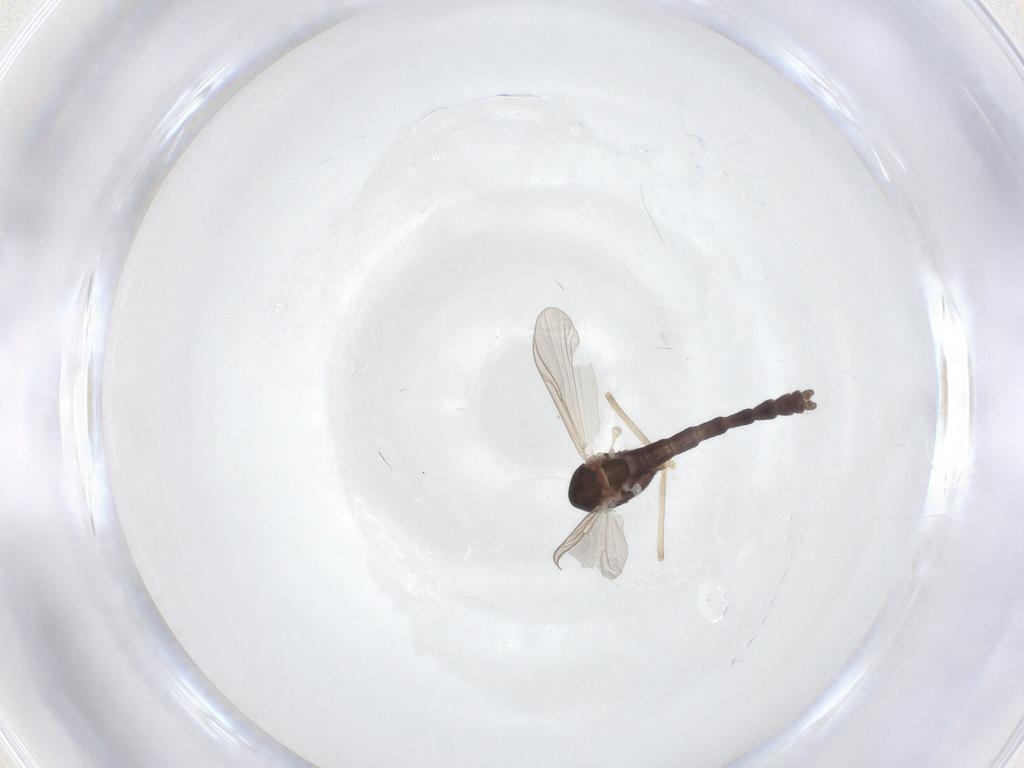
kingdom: Animalia
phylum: Arthropoda
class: Insecta
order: Diptera
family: Chironomidae
